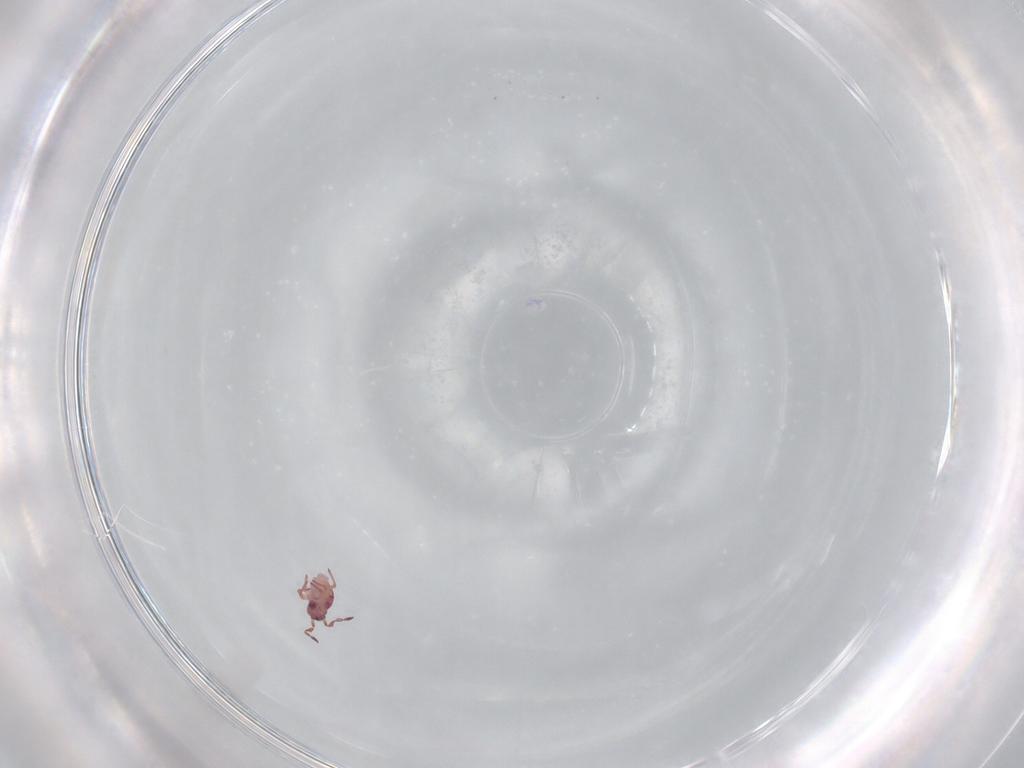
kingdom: Animalia
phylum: Arthropoda
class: Collembola
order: Symphypleona
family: Sminthurididae
